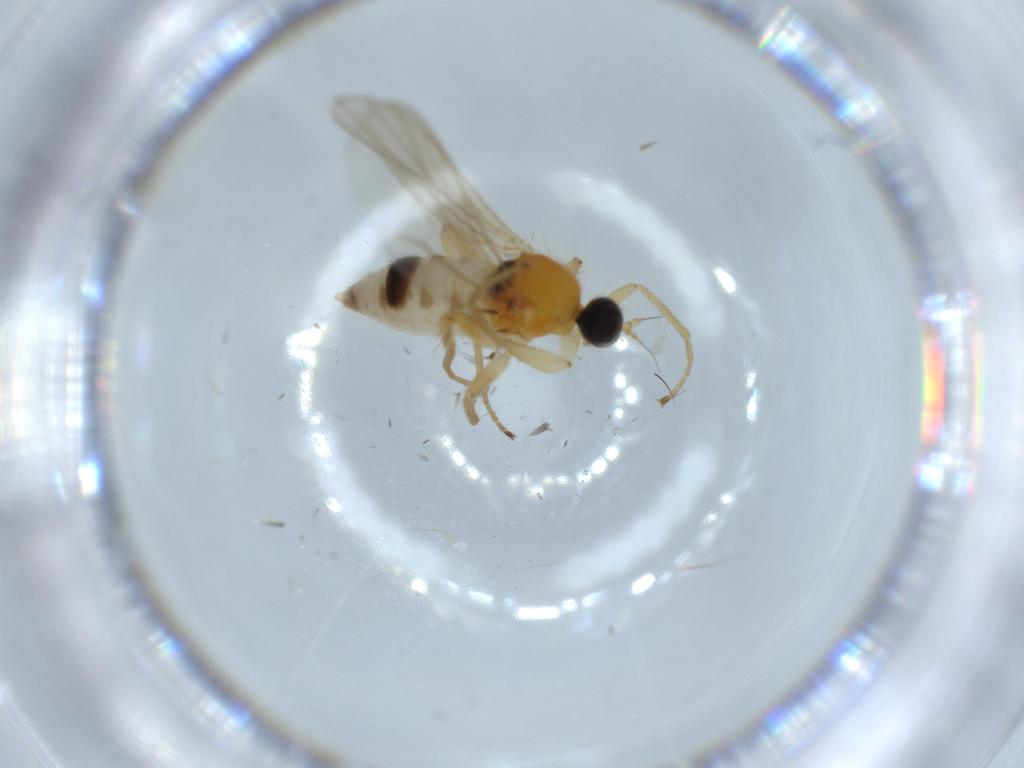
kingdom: Animalia
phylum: Arthropoda
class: Insecta
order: Diptera
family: Hybotidae
